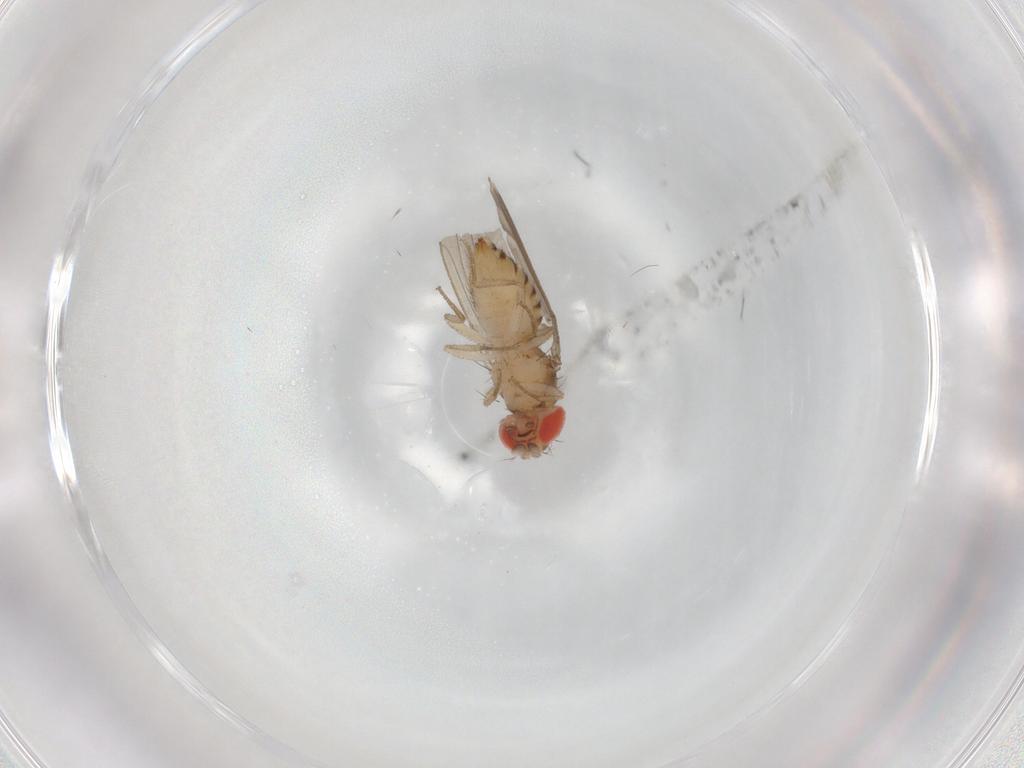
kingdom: Animalia
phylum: Arthropoda
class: Insecta
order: Diptera
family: Drosophilidae
